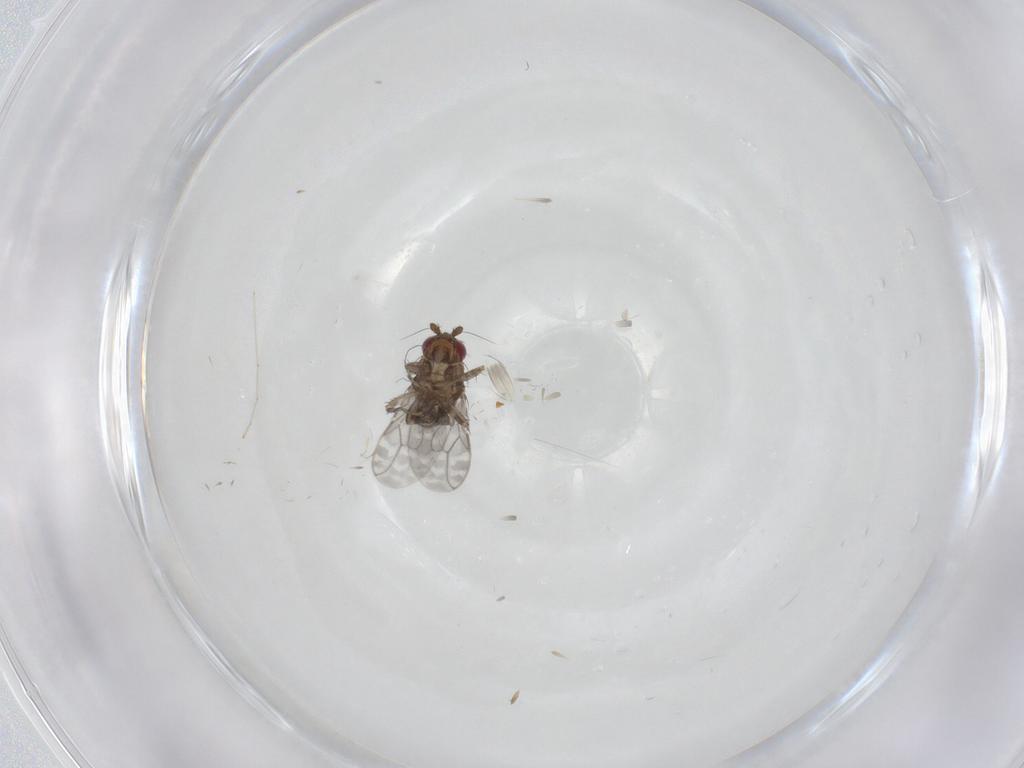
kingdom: Animalia
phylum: Arthropoda
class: Insecta
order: Diptera
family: Sphaeroceridae
